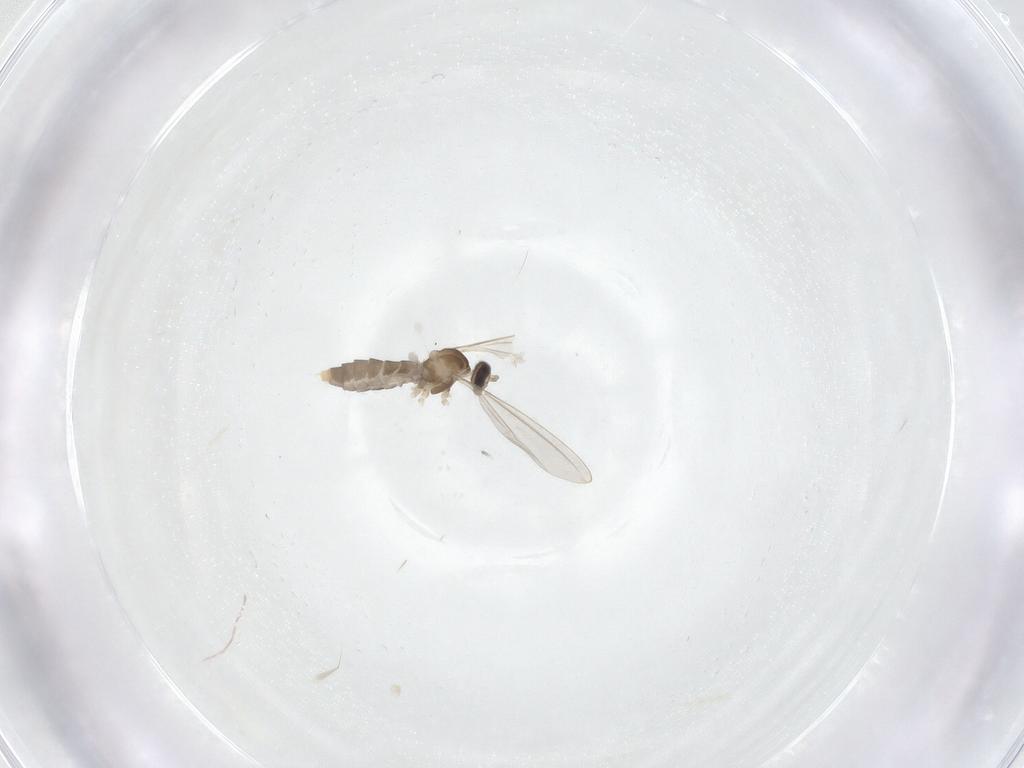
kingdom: Animalia
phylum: Arthropoda
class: Insecta
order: Diptera
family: Cecidomyiidae
